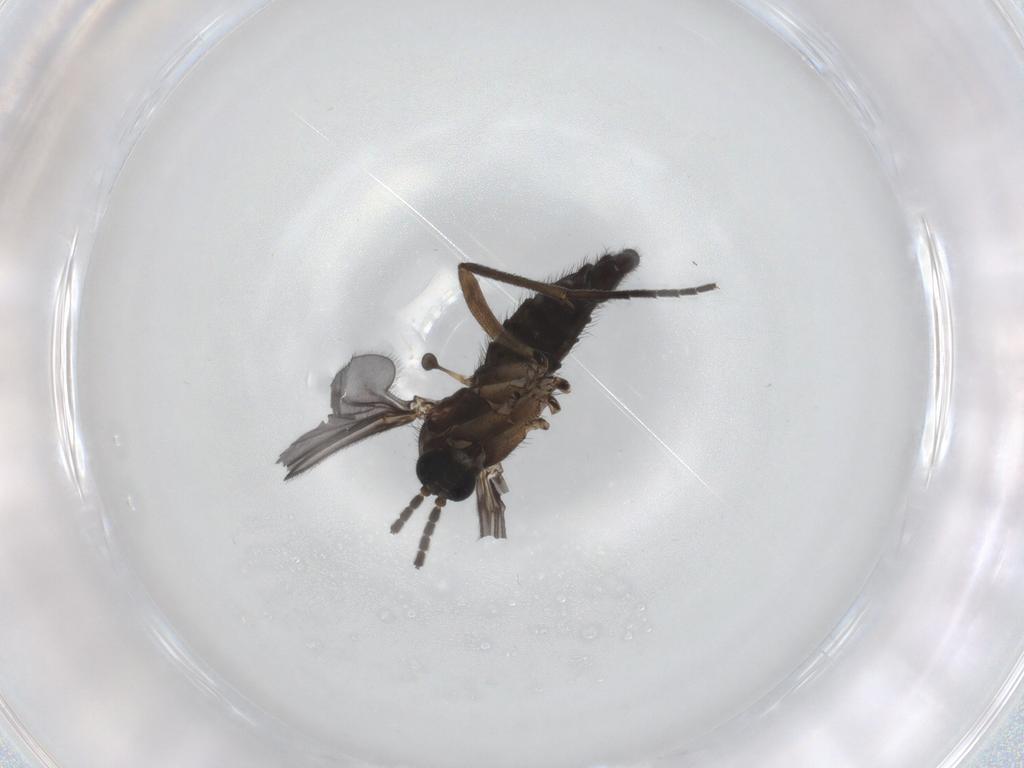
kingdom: Animalia
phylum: Arthropoda
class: Insecta
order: Diptera
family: Sciaridae
